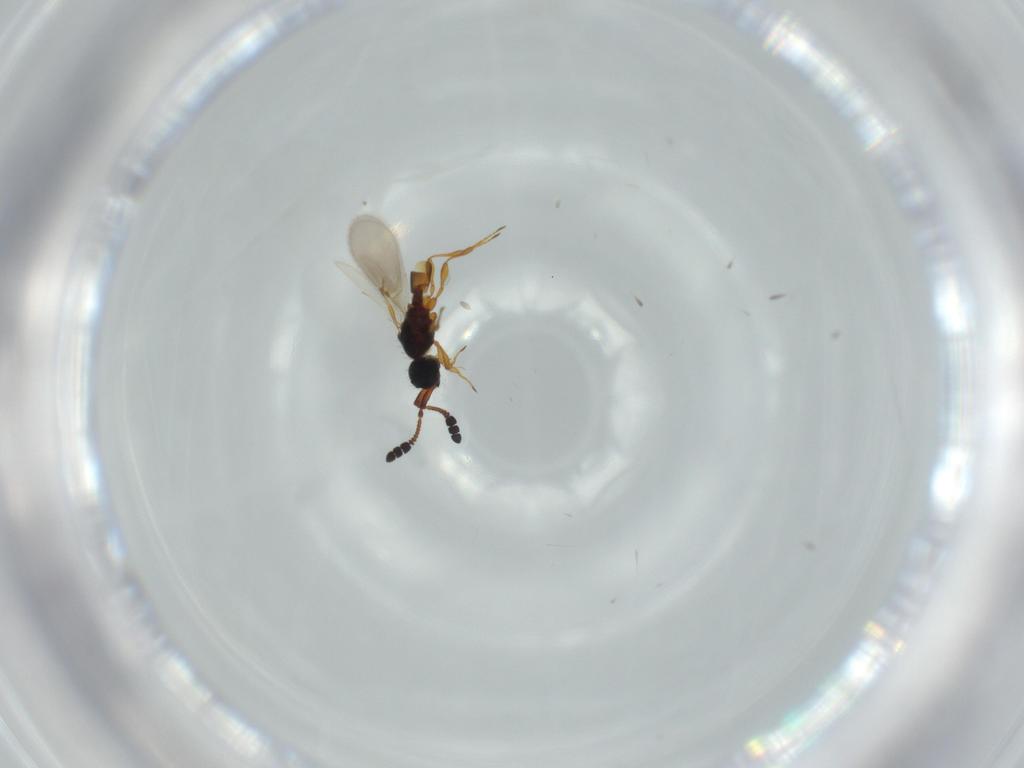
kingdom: Animalia
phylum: Arthropoda
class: Insecta
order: Hymenoptera
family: Diapriidae
